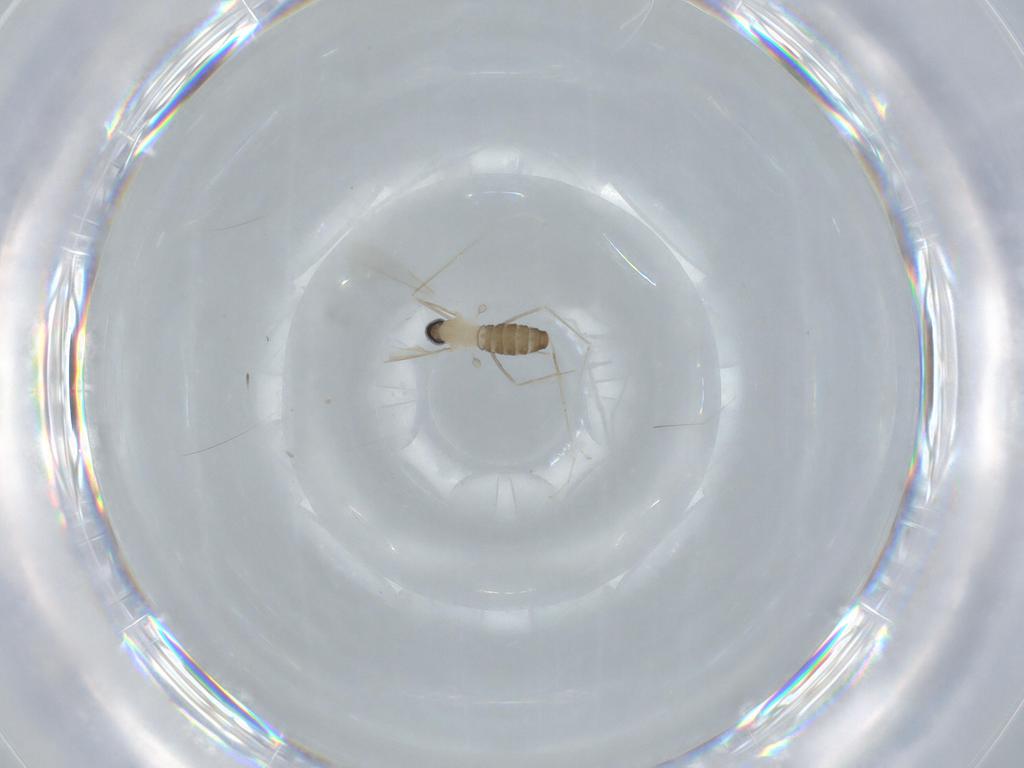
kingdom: Animalia
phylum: Arthropoda
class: Insecta
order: Diptera
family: Cecidomyiidae
